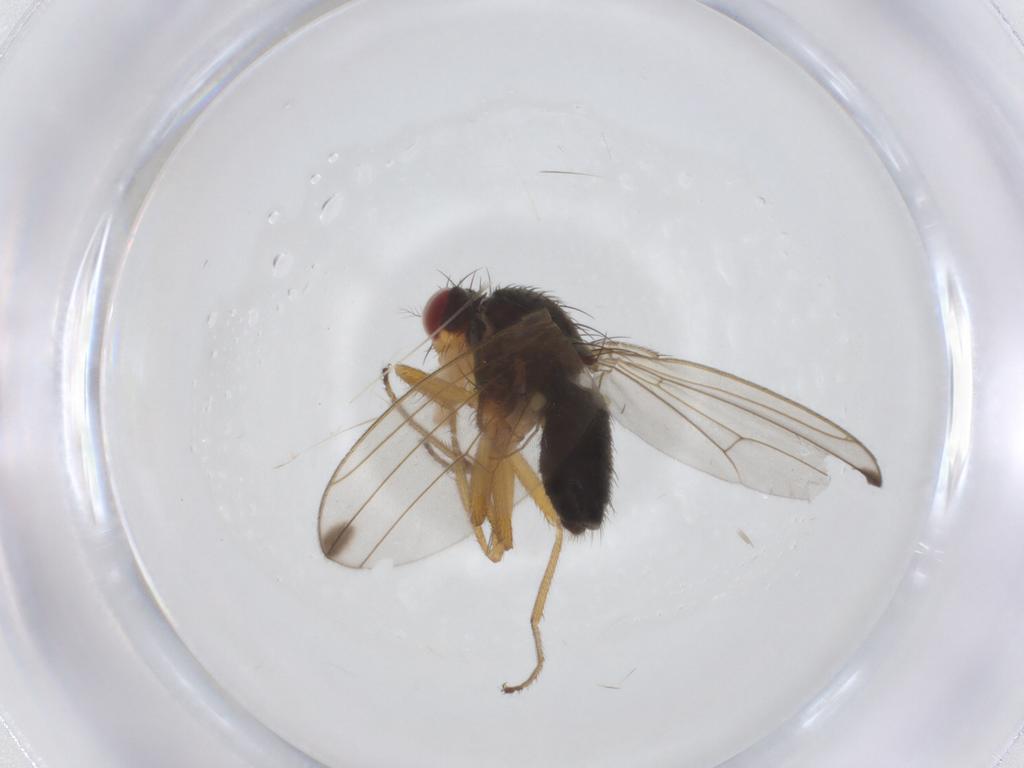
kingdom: Animalia
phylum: Arthropoda
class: Insecta
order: Diptera
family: Drosophilidae
